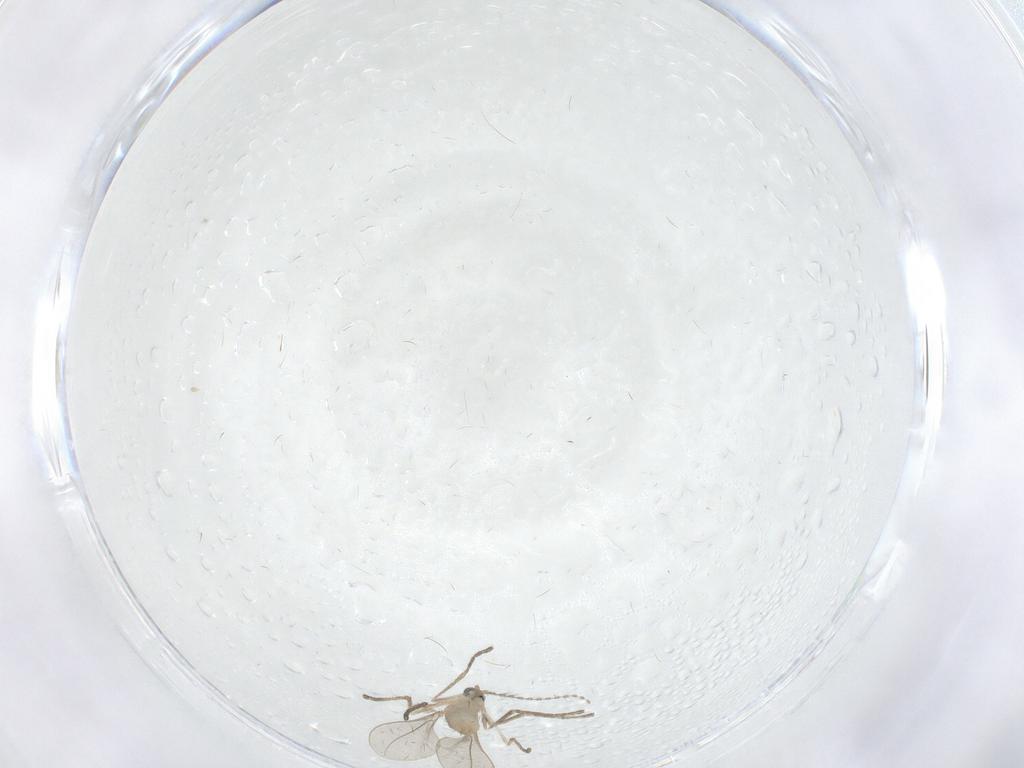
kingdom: Animalia
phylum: Arthropoda
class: Insecta
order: Diptera
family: Cecidomyiidae
